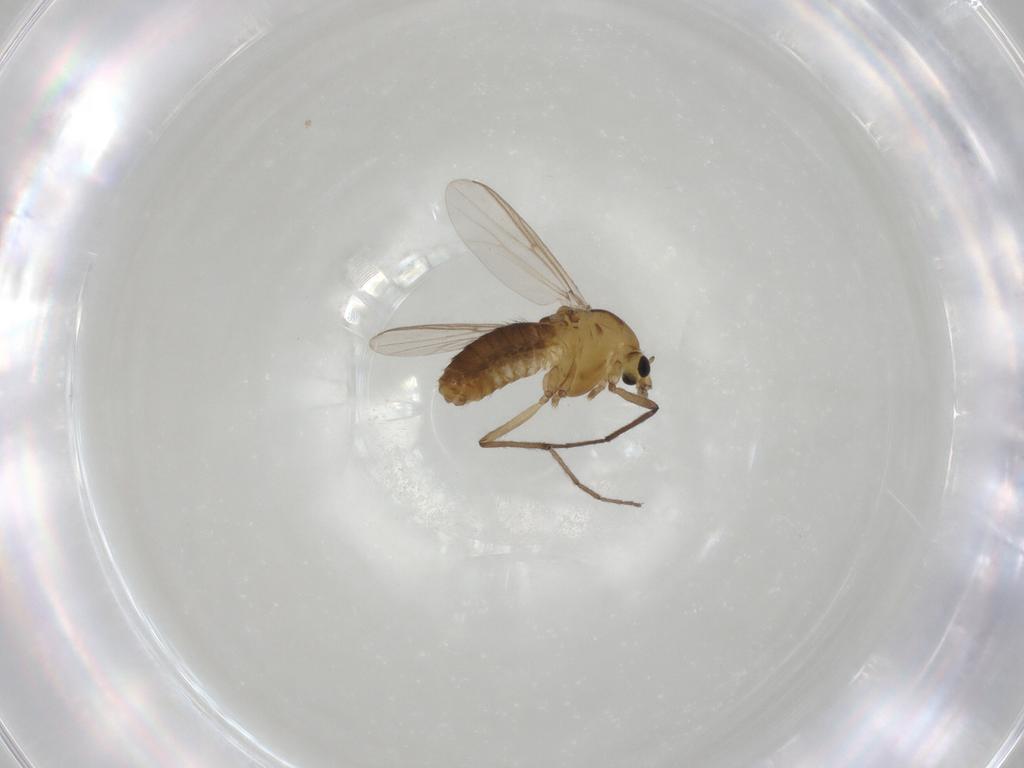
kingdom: Animalia
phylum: Arthropoda
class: Insecta
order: Diptera
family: Chironomidae
